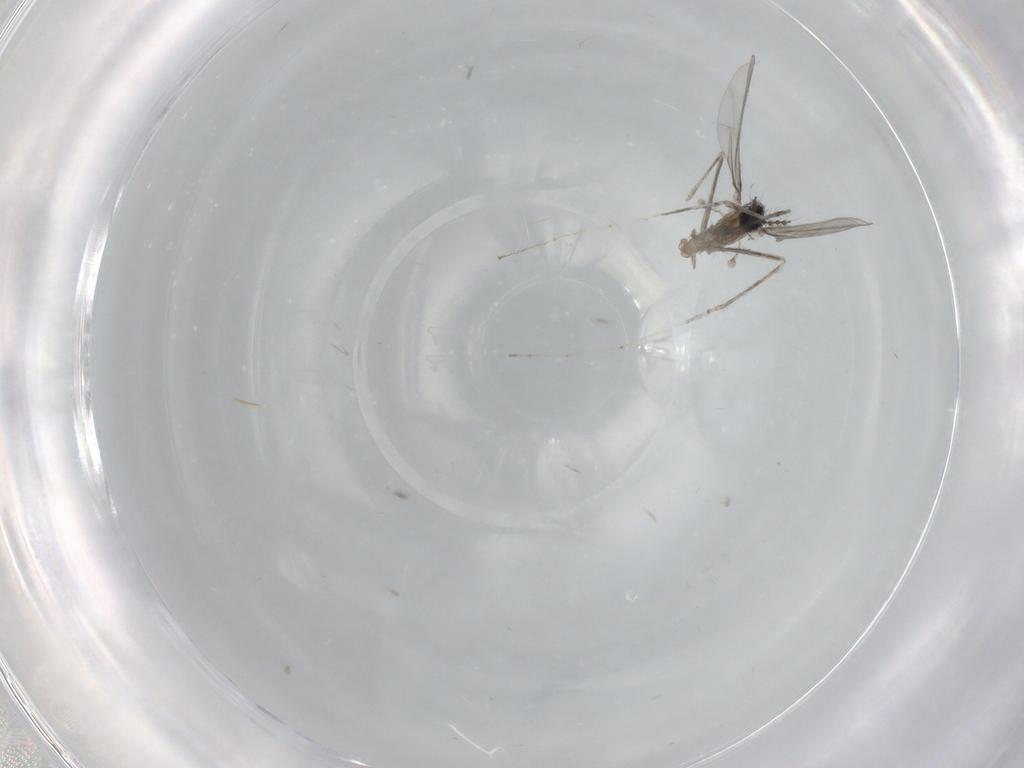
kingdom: Animalia
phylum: Arthropoda
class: Insecta
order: Diptera
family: Cecidomyiidae
